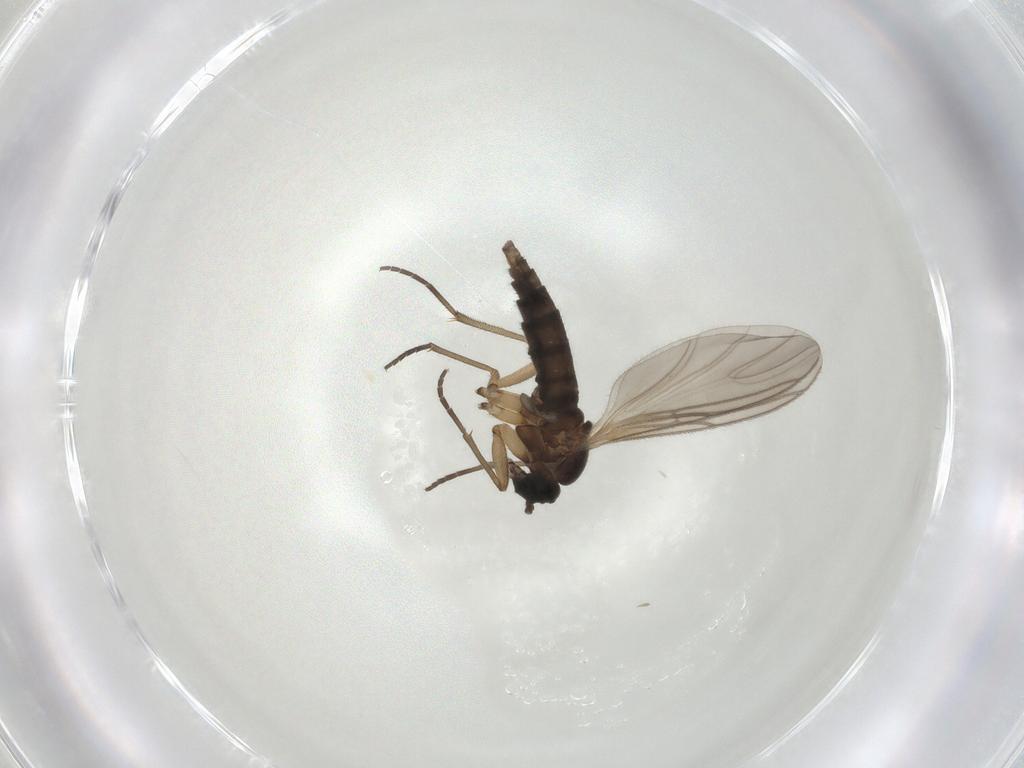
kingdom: Animalia
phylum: Arthropoda
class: Insecta
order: Diptera
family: Sciaridae
